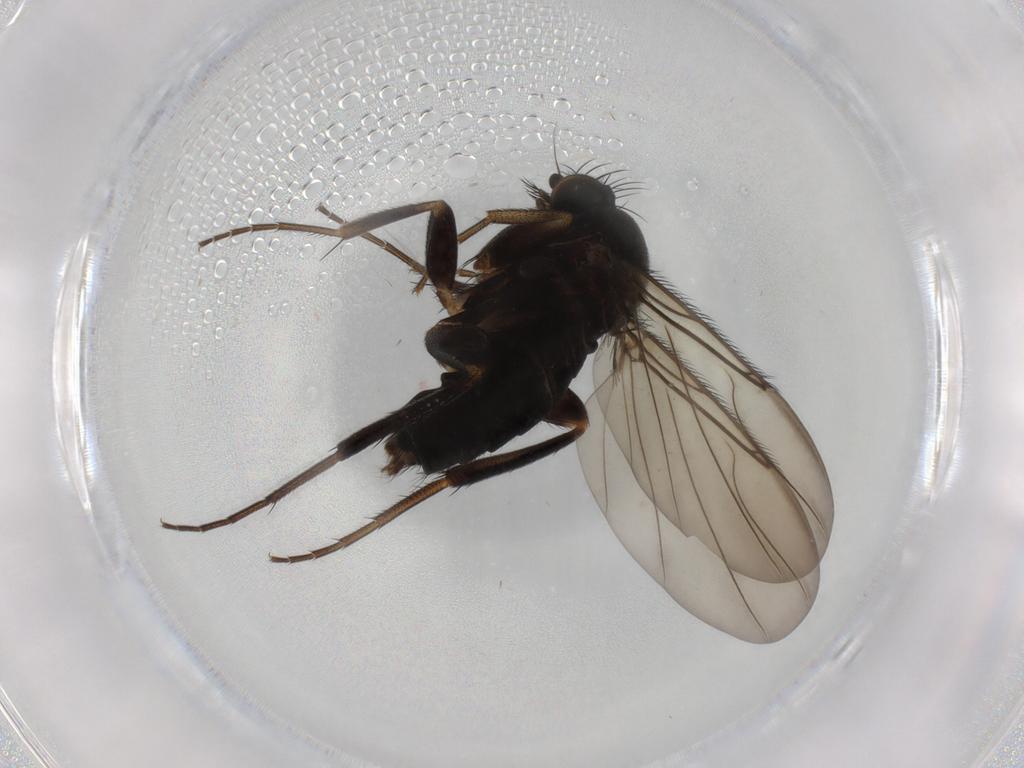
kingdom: Animalia
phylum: Arthropoda
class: Insecta
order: Diptera
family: Phoridae
